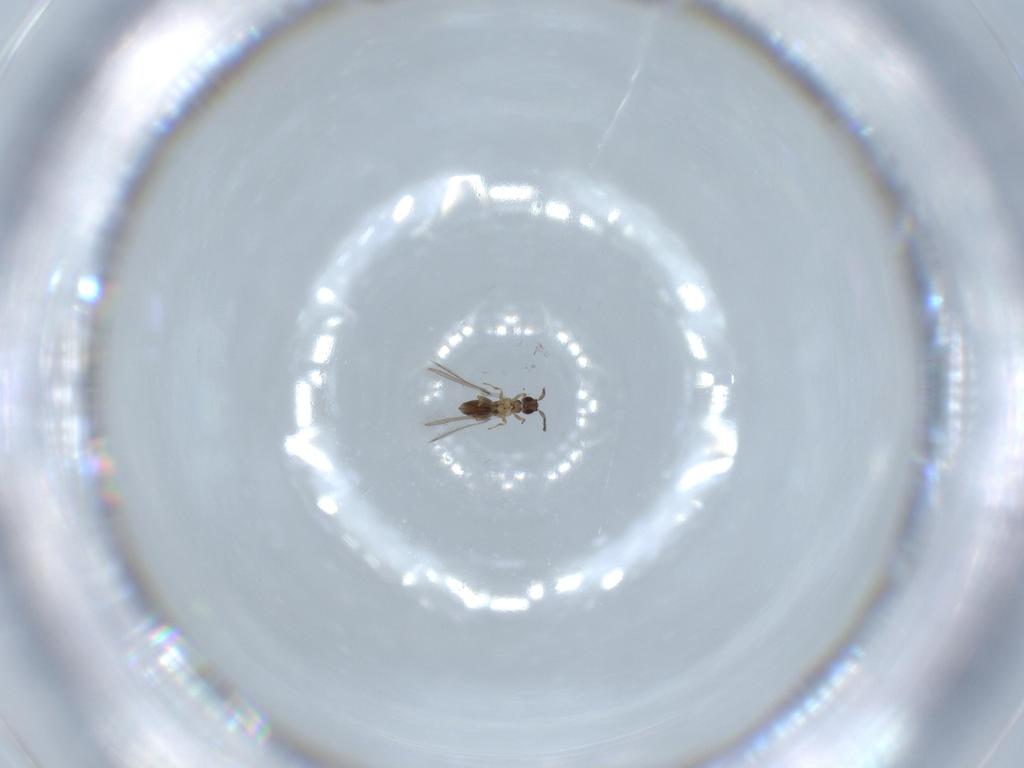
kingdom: Animalia
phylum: Arthropoda
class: Insecta
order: Hymenoptera
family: Mymaridae
